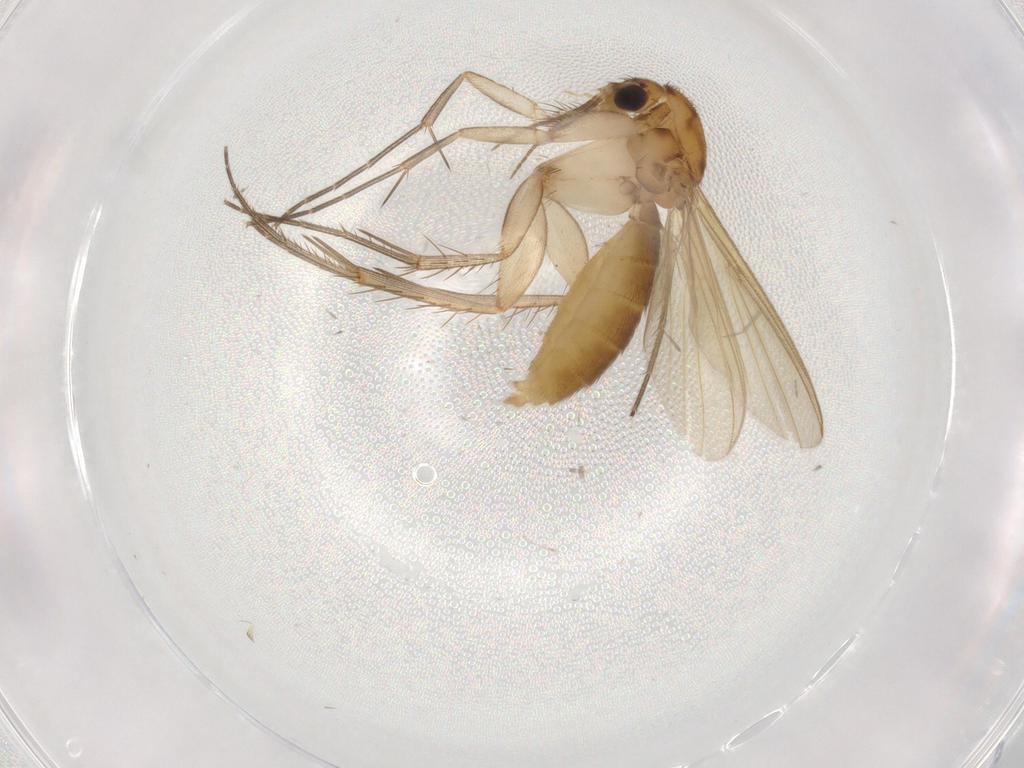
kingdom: Animalia
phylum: Arthropoda
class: Insecta
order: Diptera
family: Mycetophilidae
